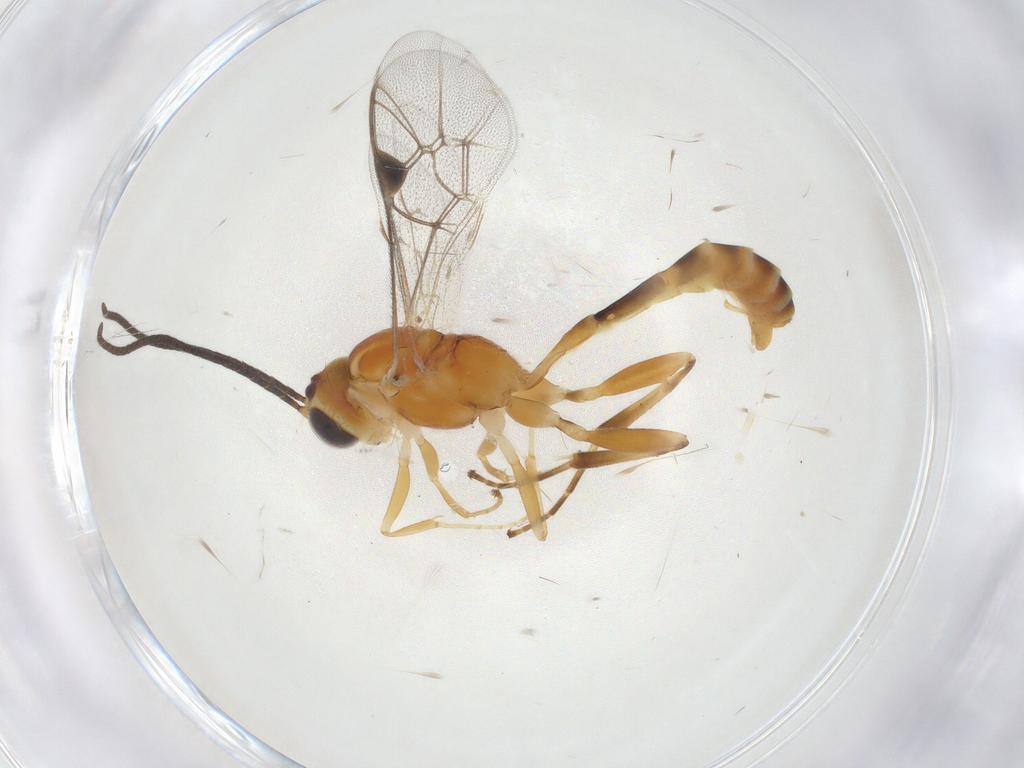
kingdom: Animalia
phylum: Arthropoda
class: Insecta
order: Hymenoptera
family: Ichneumonidae
